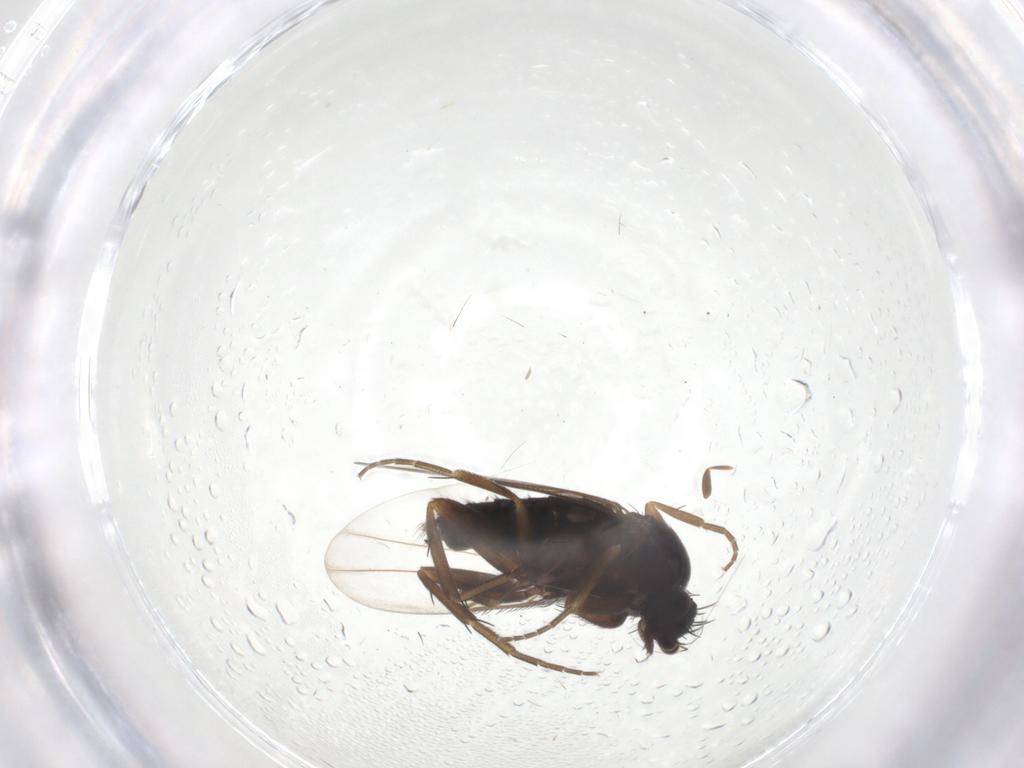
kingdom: Animalia
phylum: Arthropoda
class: Insecta
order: Diptera
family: Phoridae
